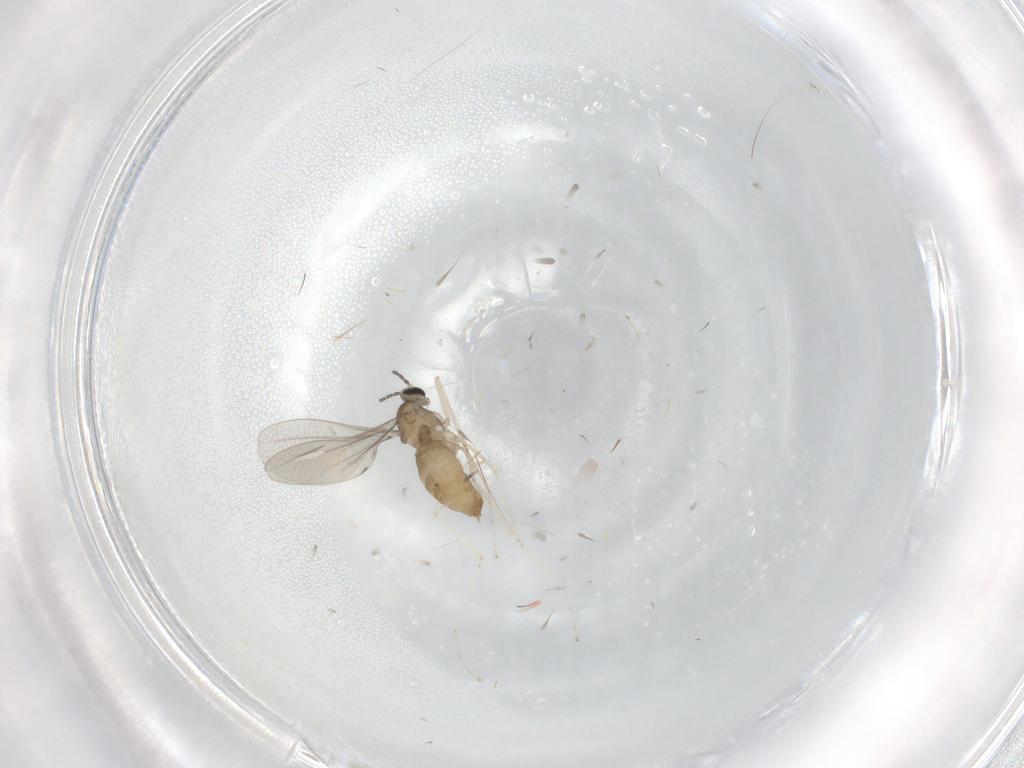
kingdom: Animalia
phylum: Arthropoda
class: Insecta
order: Diptera
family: Cecidomyiidae
